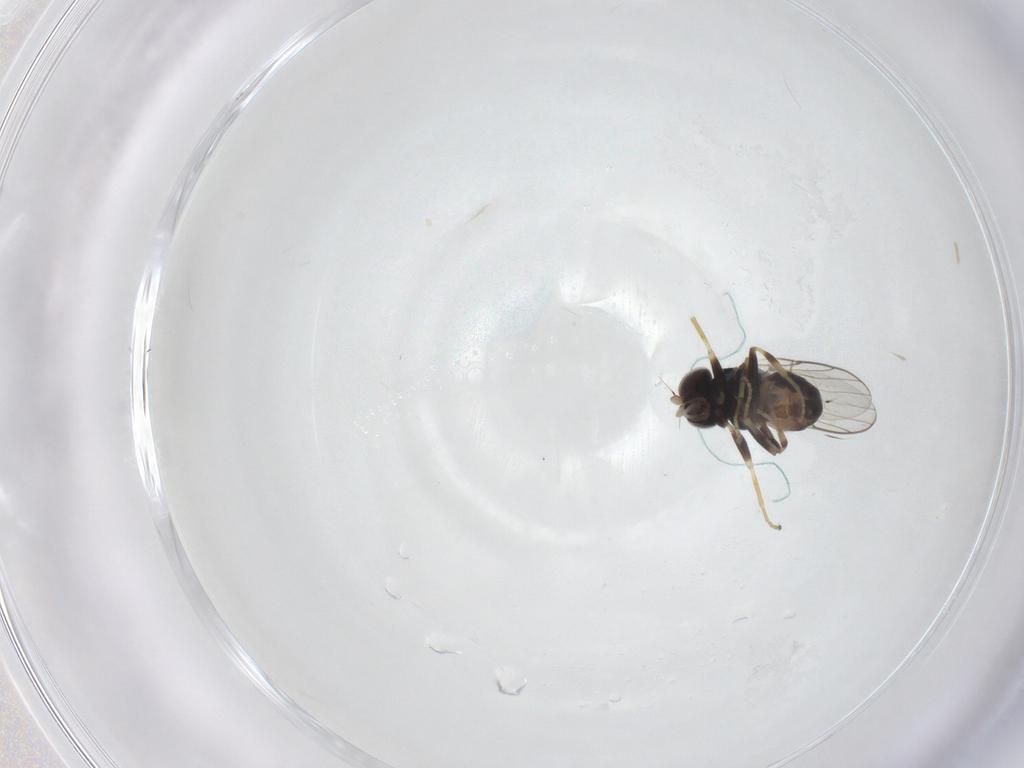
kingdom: Animalia
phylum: Arthropoda
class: Insecta
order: Diptera
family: Chloropidae
